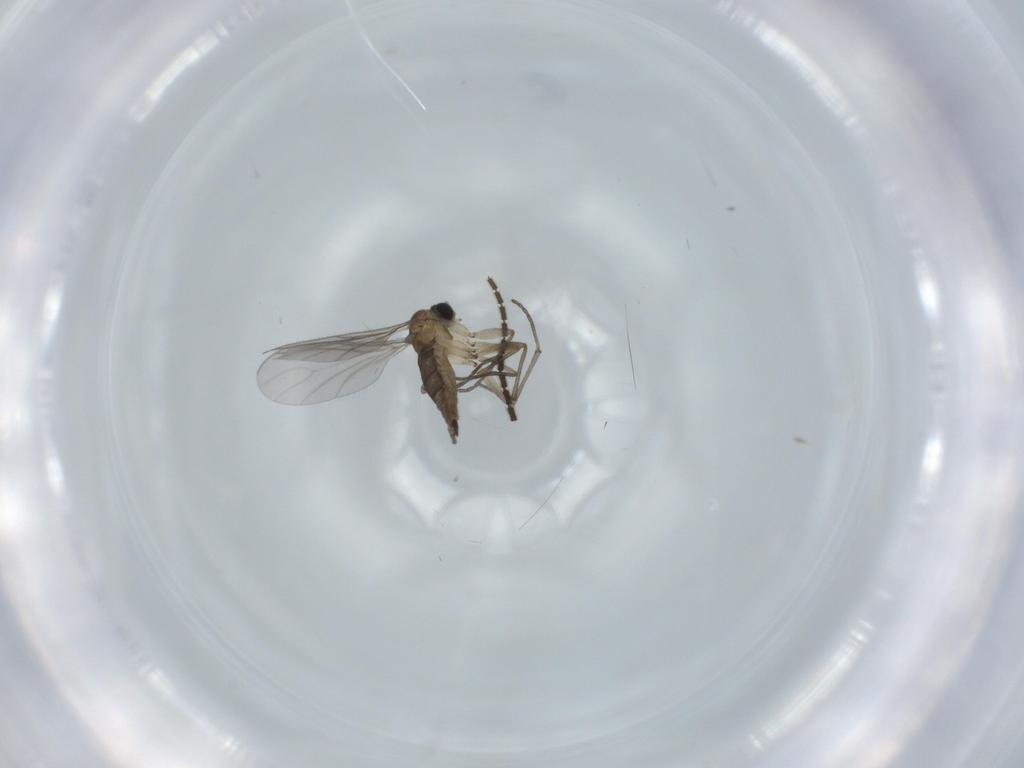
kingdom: Animalia
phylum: Arthropoda
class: Insecta
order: Diptera
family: Sciaridae
